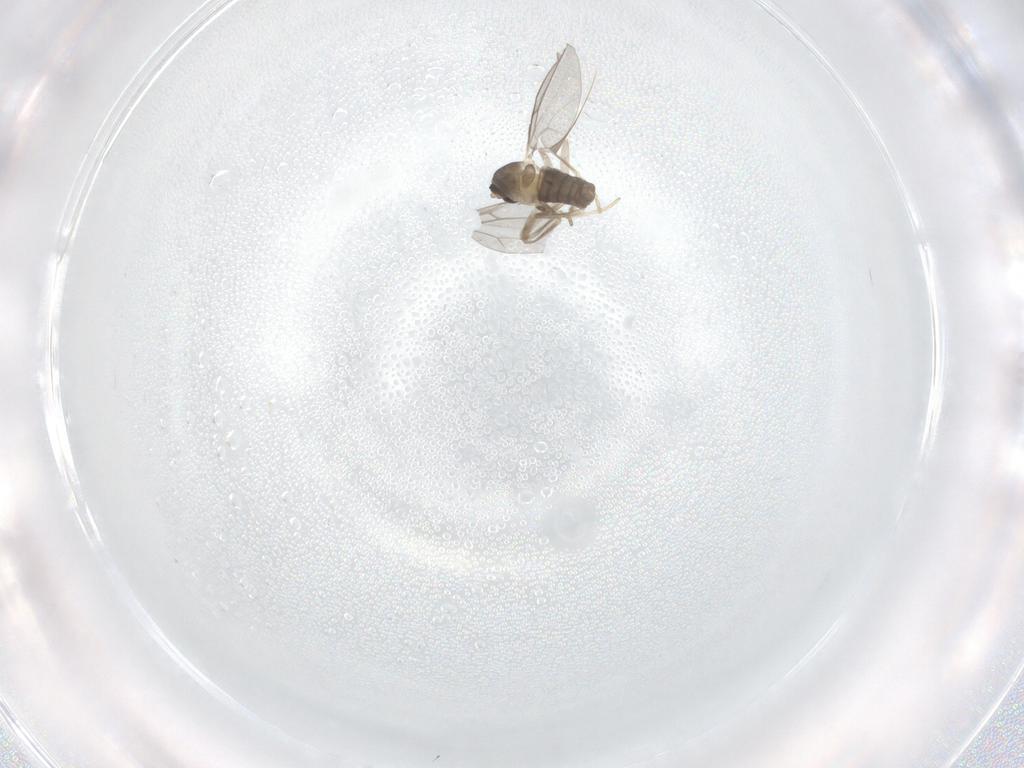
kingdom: Animalia
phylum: Arthropoda
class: Insecta
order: Diptera
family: Cecidomyiidae
